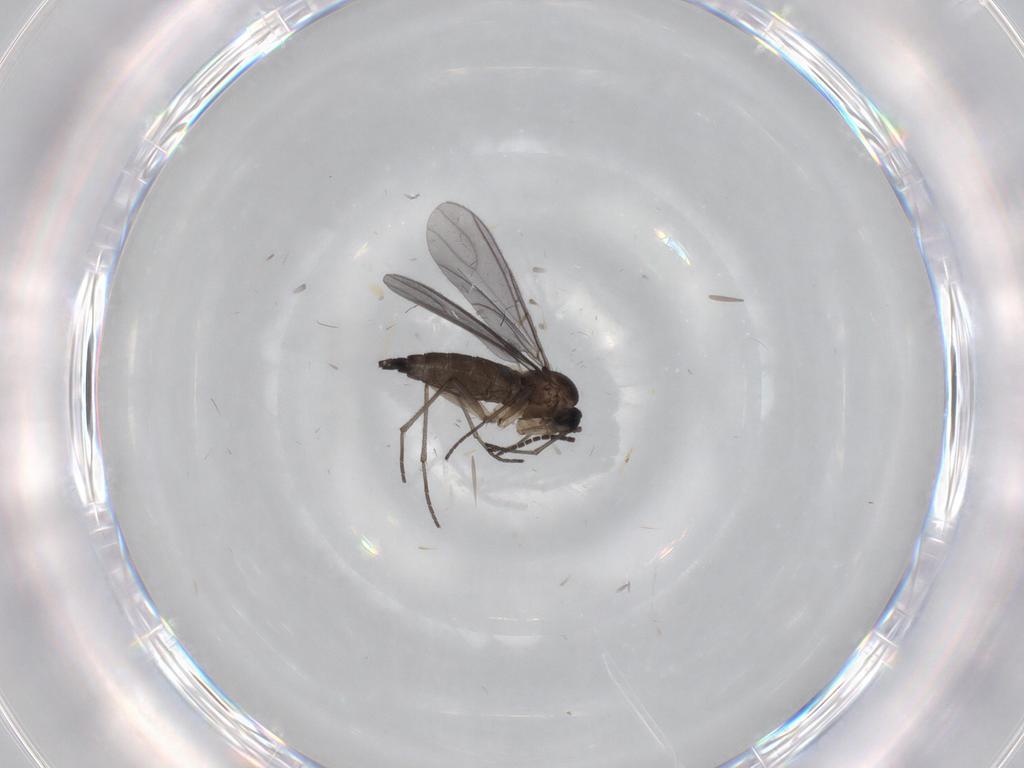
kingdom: Animalia
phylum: Arthropoda
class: Insecta
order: Diptera
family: Sciaridae
